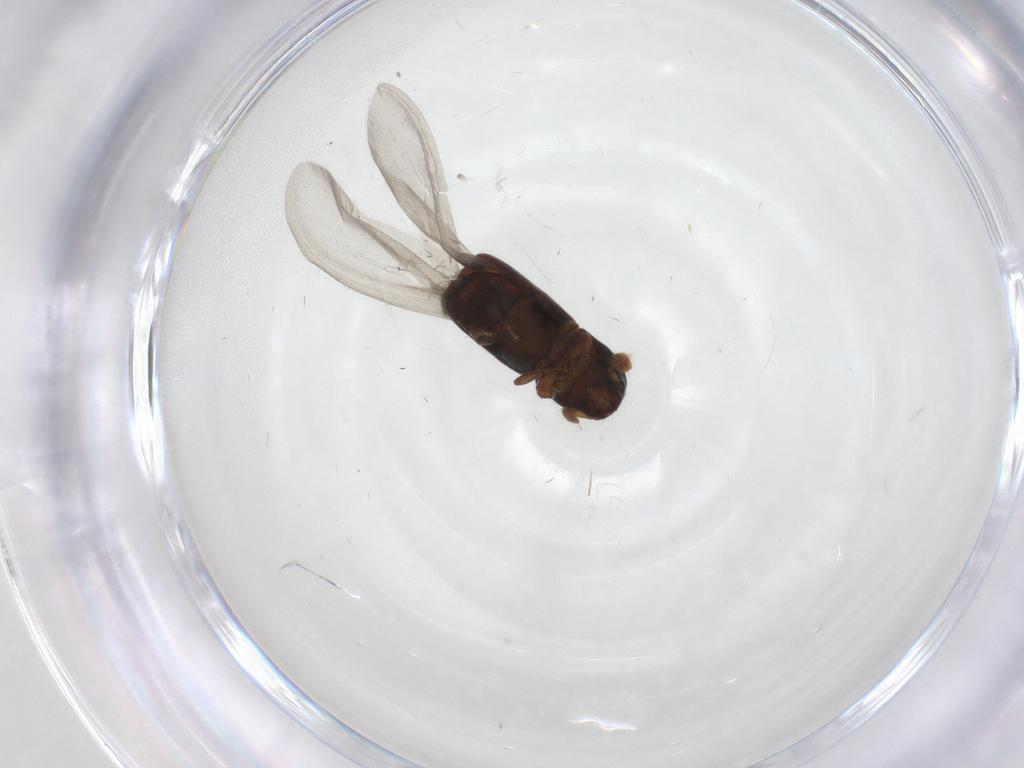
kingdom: Animalia
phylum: Arthropoda
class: Insecta
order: Coleoptera
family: Curculionidae
